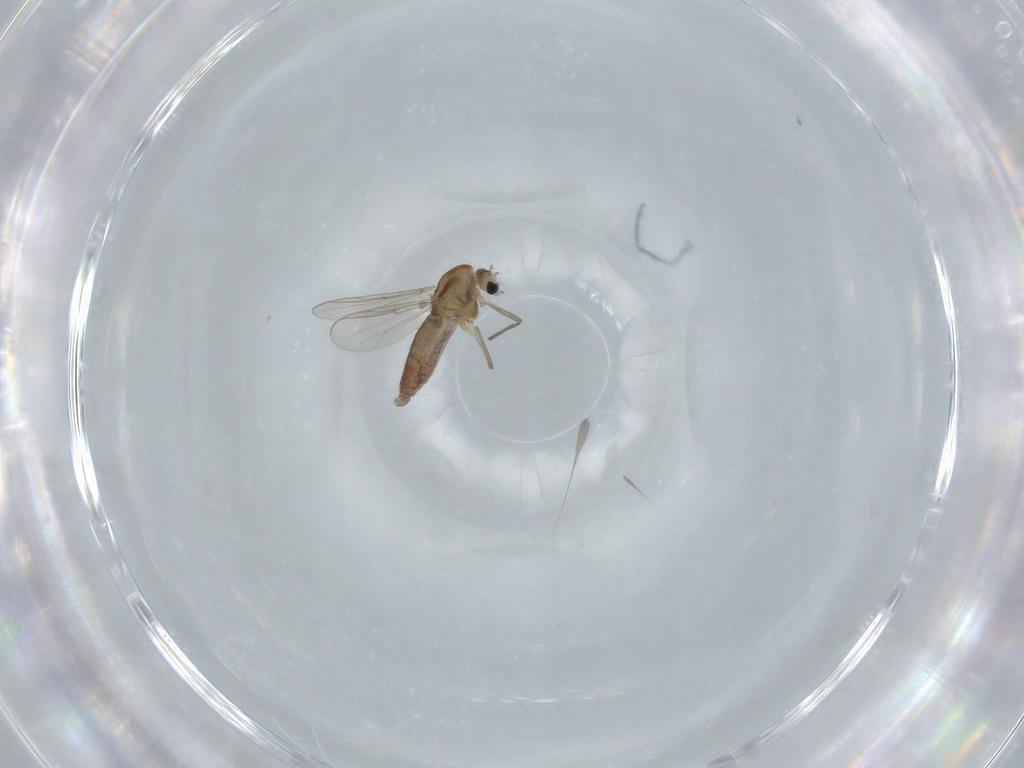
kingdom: Animalia
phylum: Arthropoda
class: Insecta
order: Diptera
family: Chironomidae
